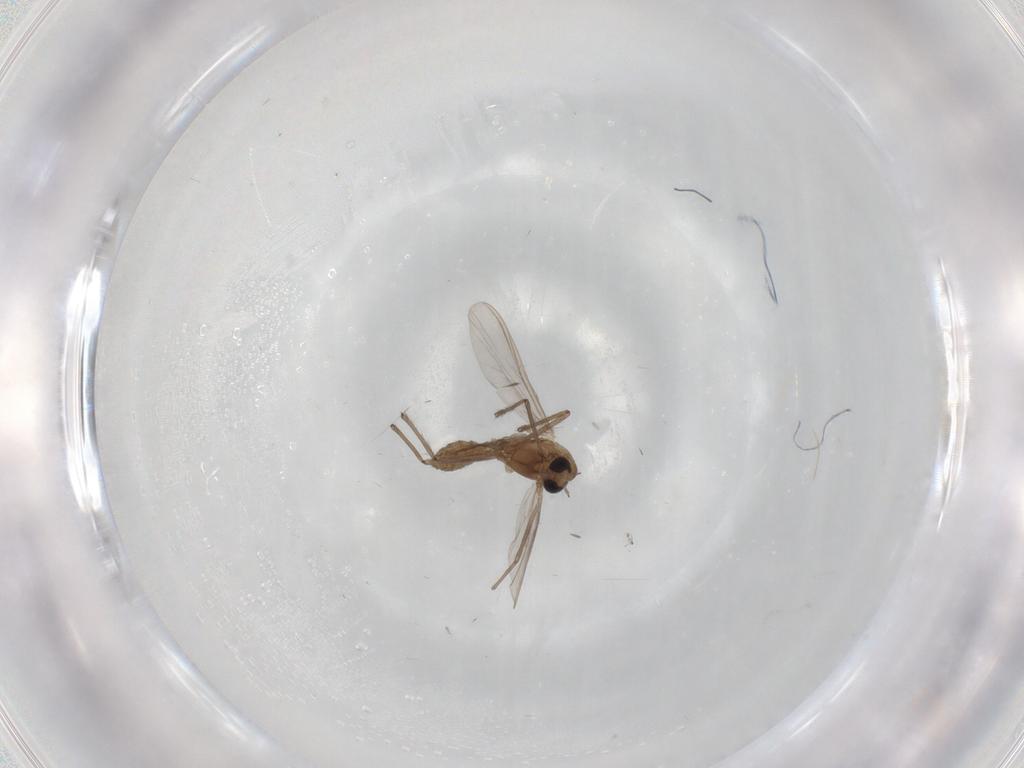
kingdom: Animalia
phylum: Arthropoda
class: Insecta
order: Diptera
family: Chironomidae
